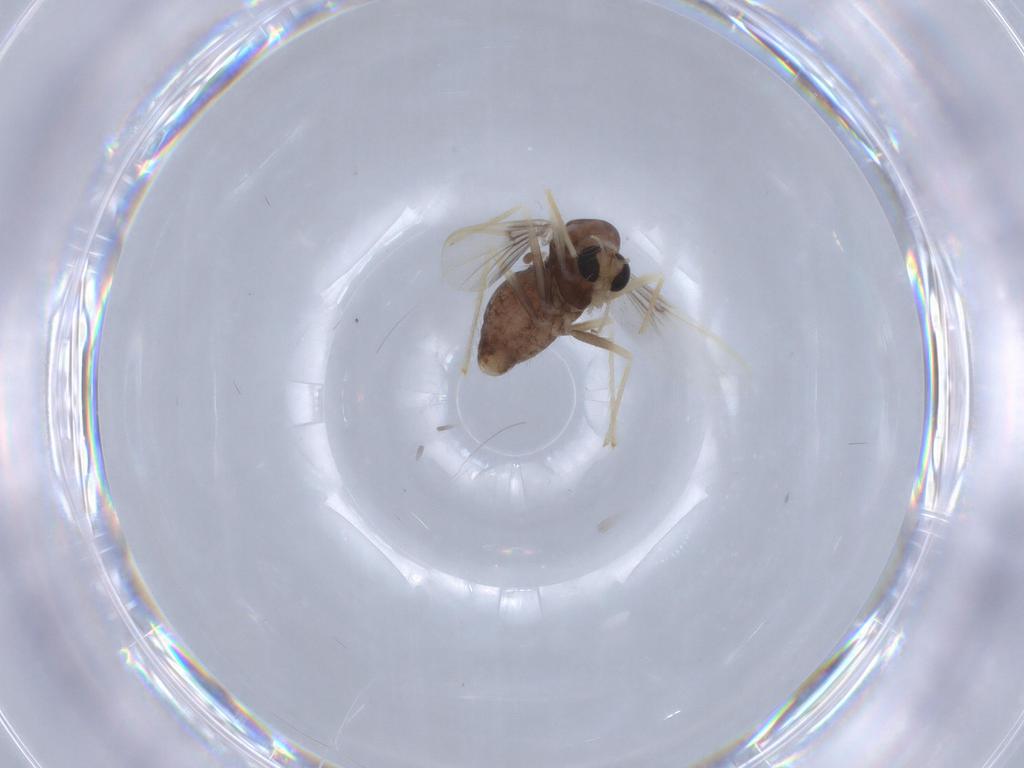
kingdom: Animalia
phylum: Arthropoda
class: Insecta
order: Diptera
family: Chironomidae
